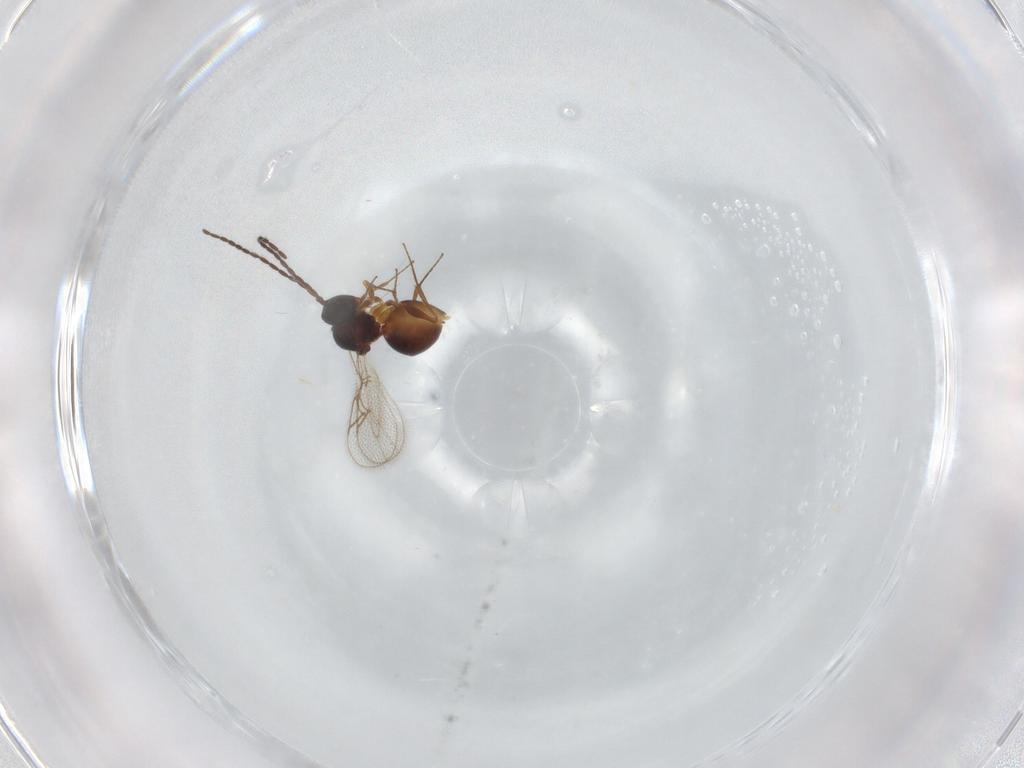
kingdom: Animalia
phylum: Arthropoda
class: Insecta
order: Hymenoptera
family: Figitidae
